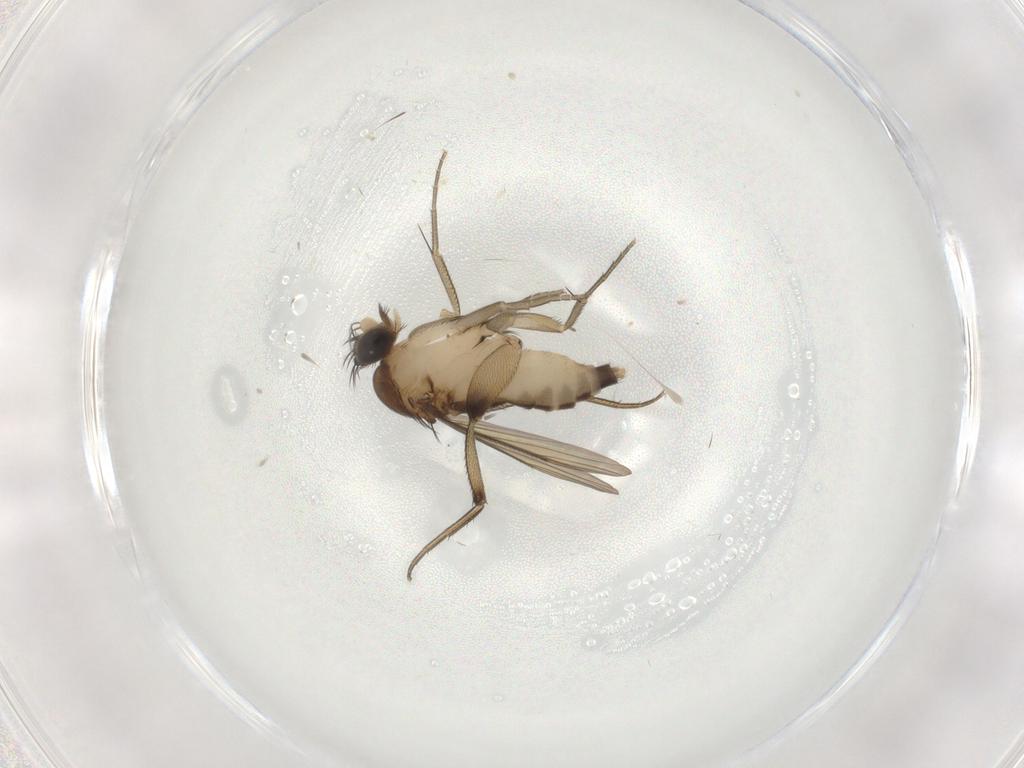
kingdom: Animalia
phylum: Arthropoda
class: Insecta
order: Diptera
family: Phoridae
